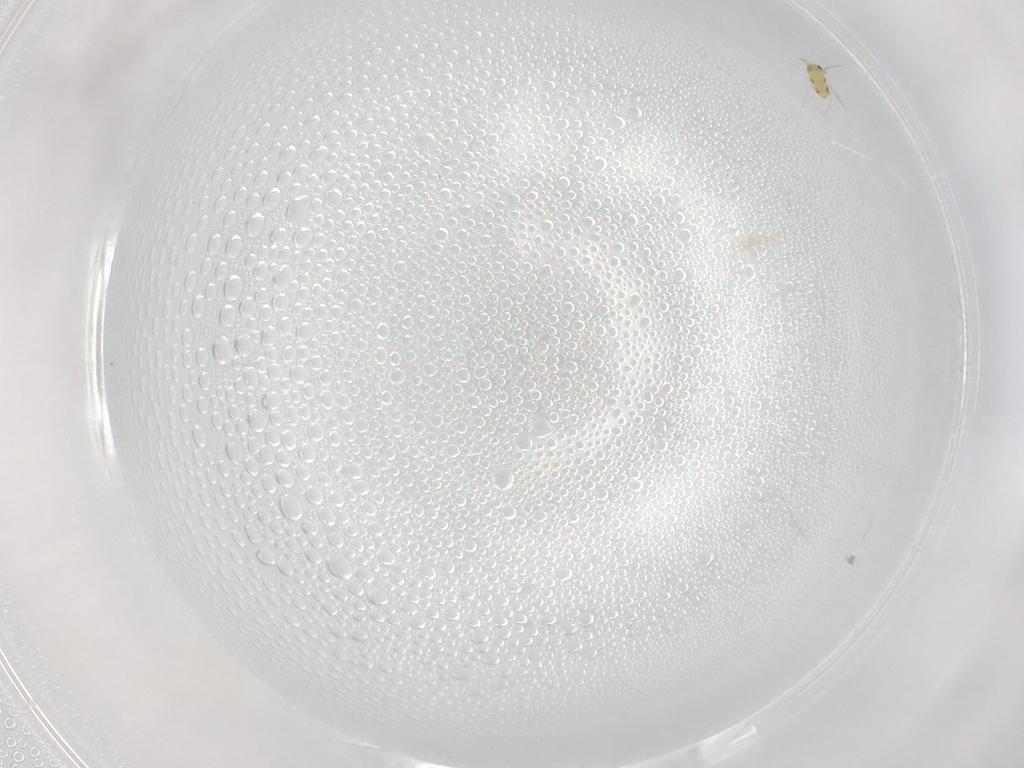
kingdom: Animalia
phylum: Arthropoda
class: Insecta
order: Hymenoptera
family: Trichogrammatidae
